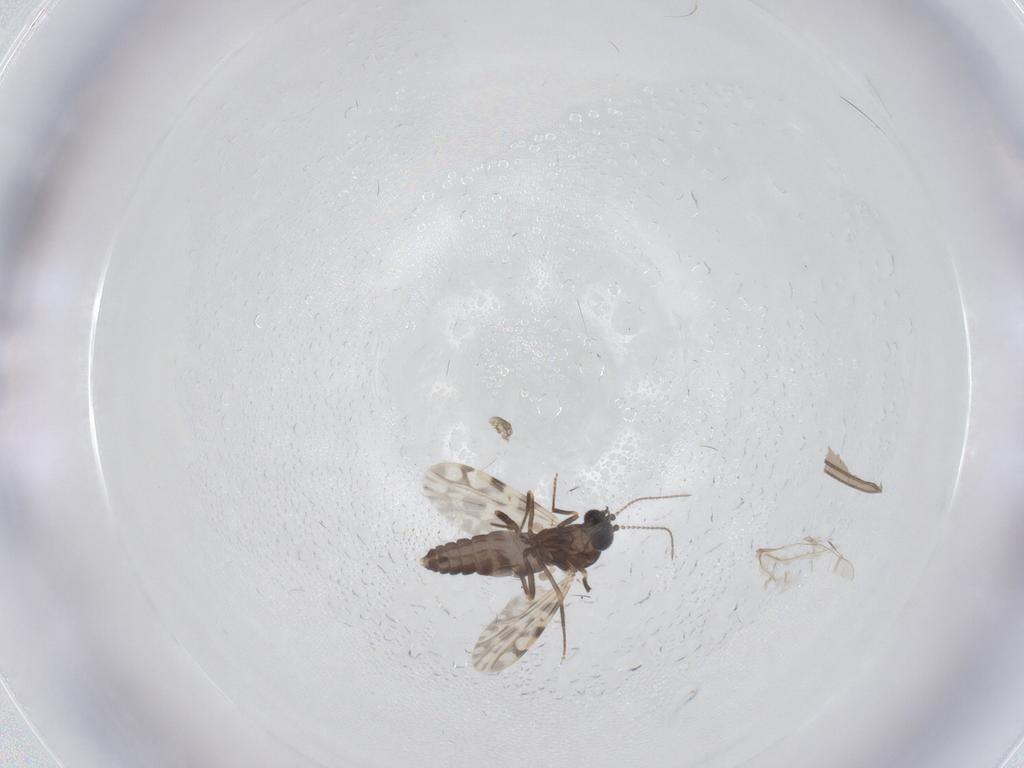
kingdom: Animalia
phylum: Arthropoda
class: Insecta
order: Diptera
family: Ceratopogonidae
